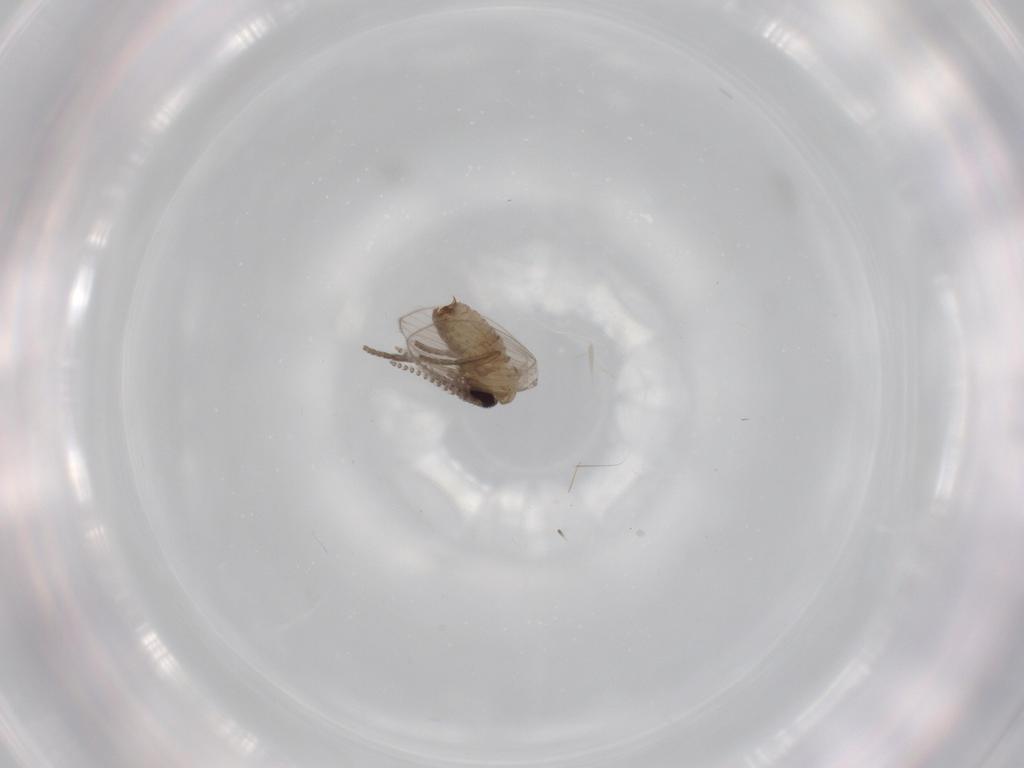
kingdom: Animalia
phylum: Arthropoda
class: Insecta
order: Diptera
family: Psychodidae
